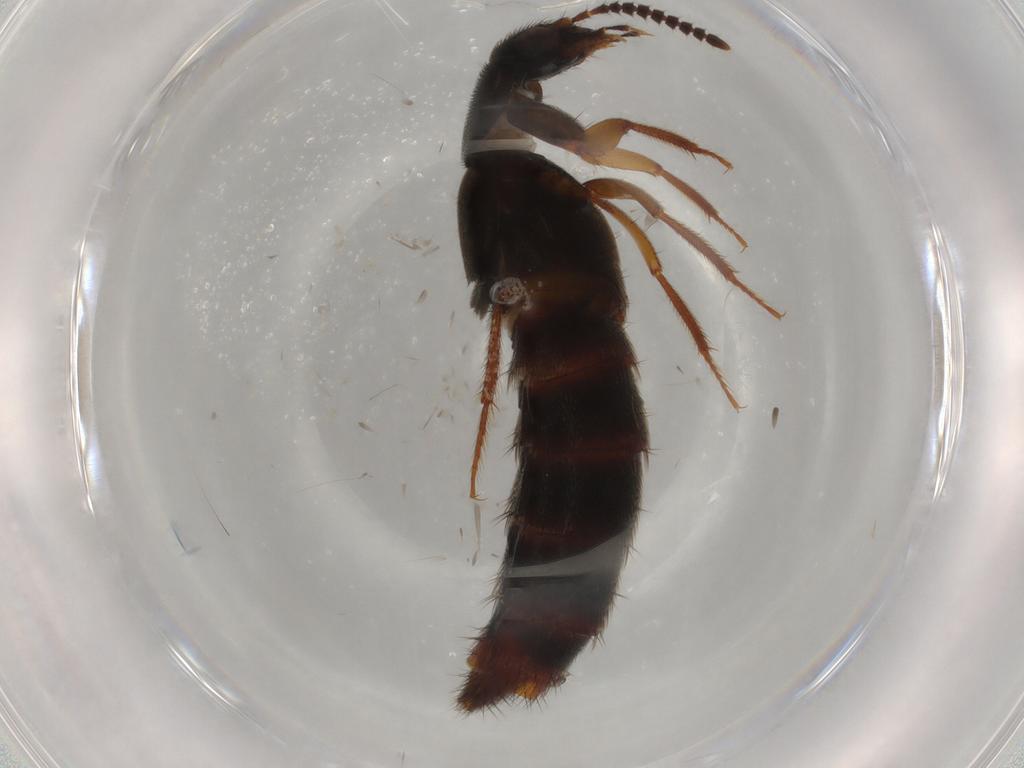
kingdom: Animalia
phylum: Arthropoda
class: Insecta
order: Coleoptera
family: Staphylinidae
